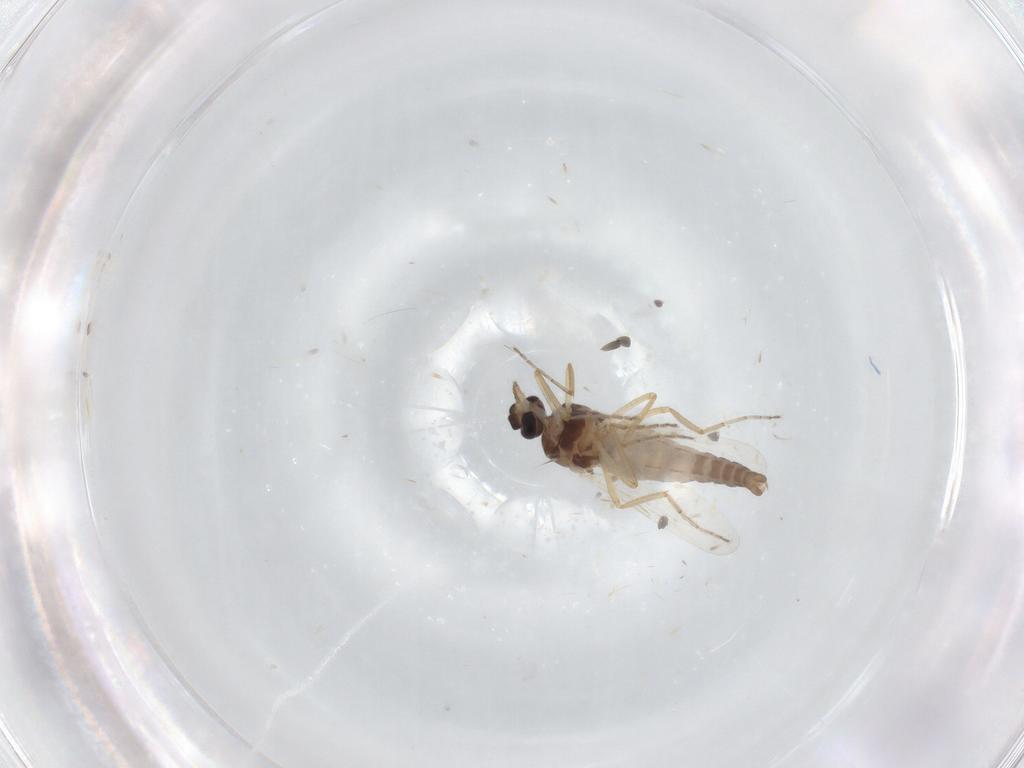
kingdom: Animalia
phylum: Arthropoda
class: Insecta
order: Diptera
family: Ceratopogonidae
